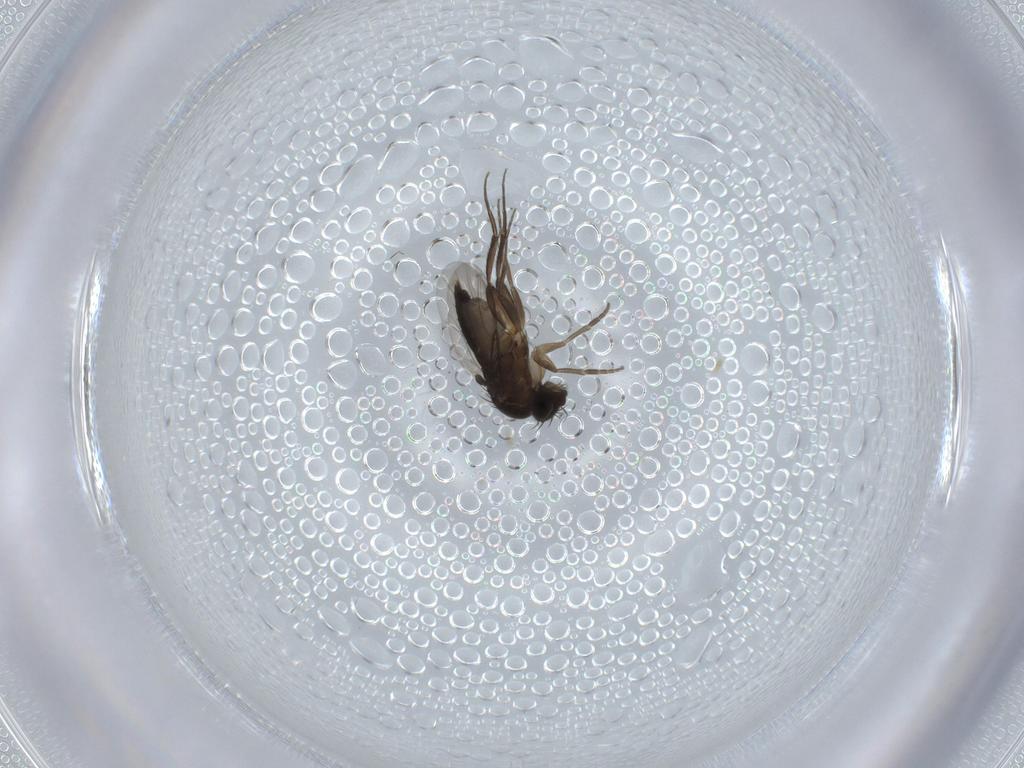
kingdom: Animalia
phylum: Arthropoda
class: Insecta
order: Diptera
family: Phoridae
